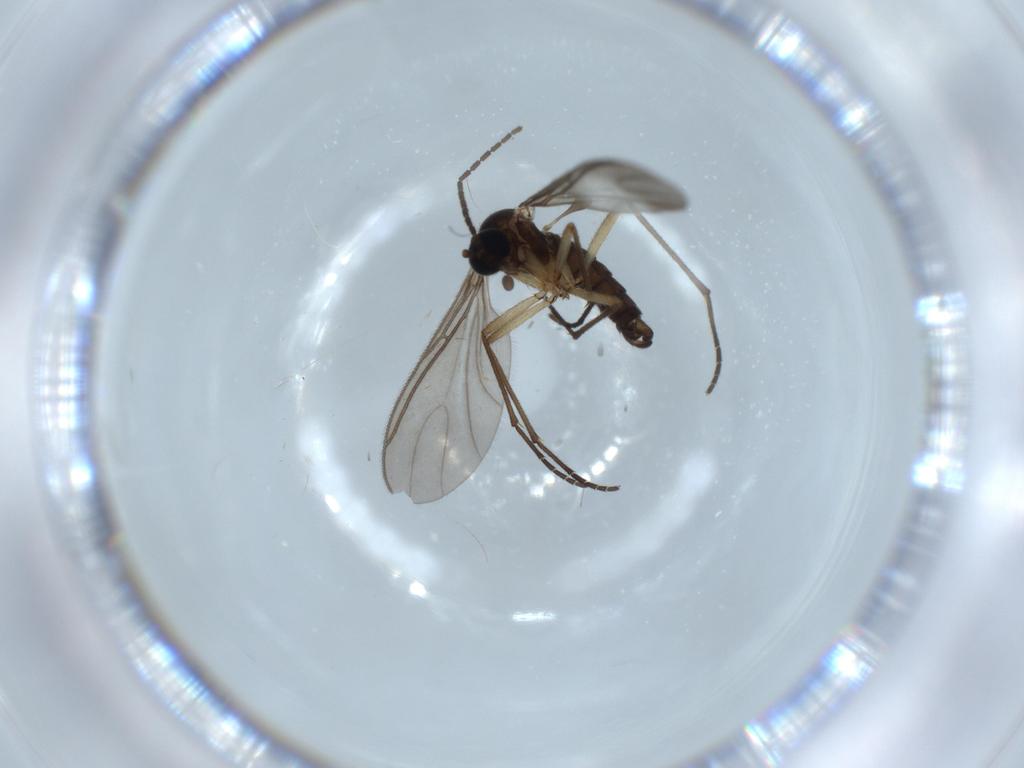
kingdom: Animalia
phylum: Arthropoda
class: Insecta
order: Diptera
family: Sciaridae
